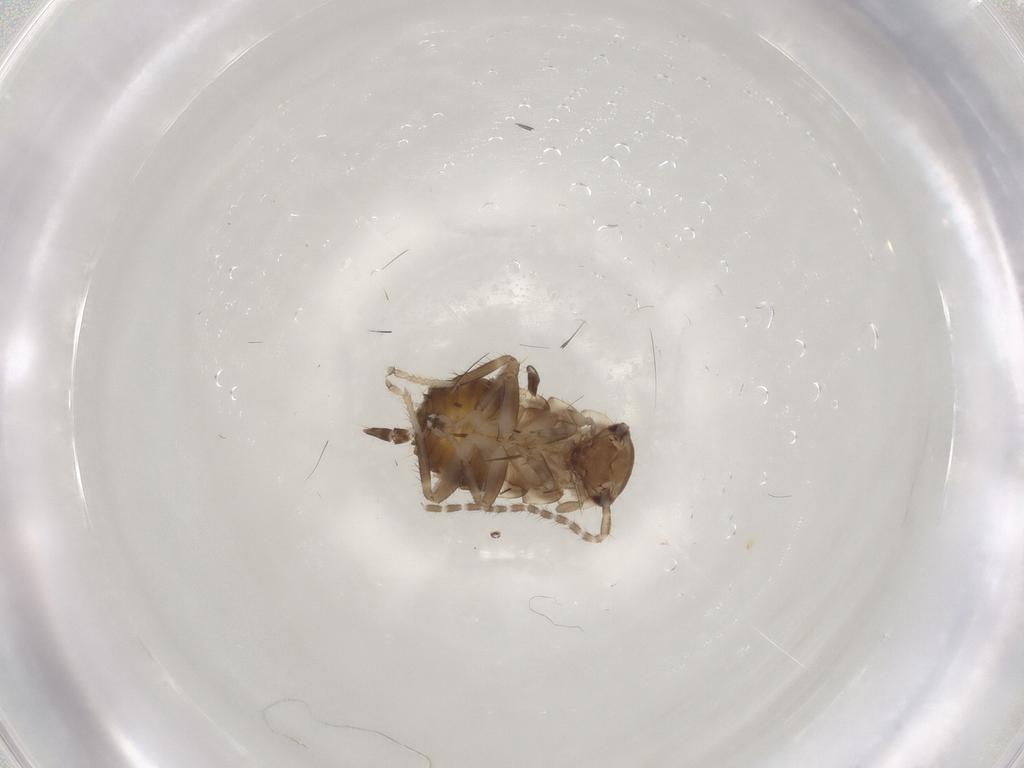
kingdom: Animalia
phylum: Arthropoda
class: Insecta
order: Blattodea
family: Ectobiidae
